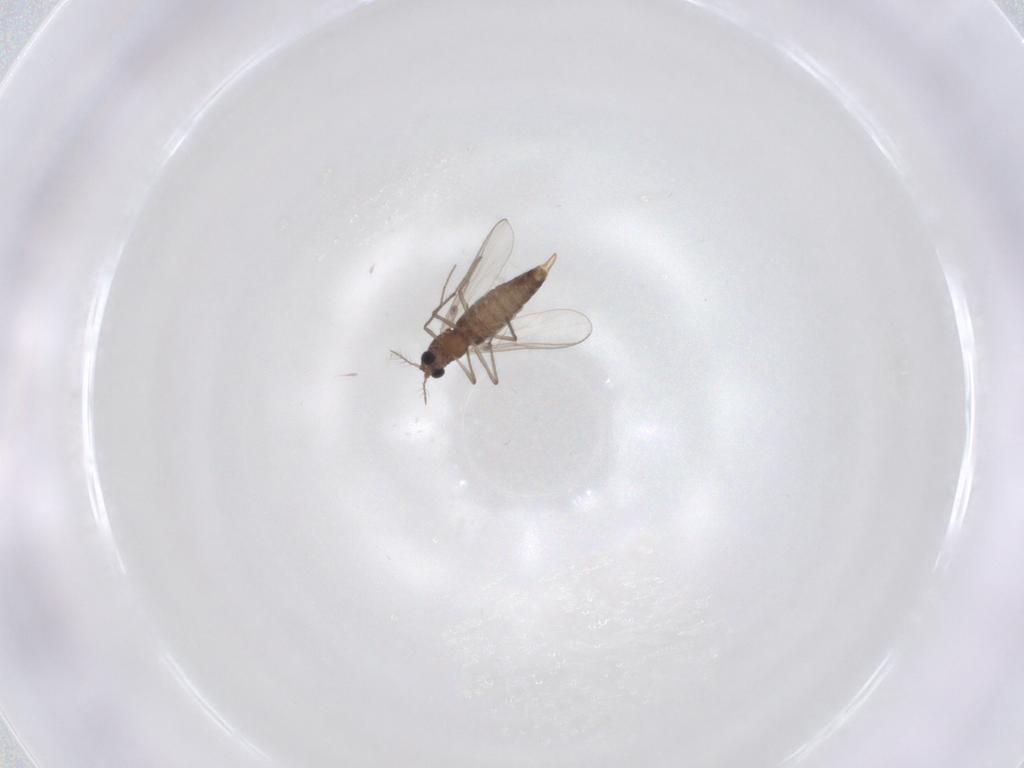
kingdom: Animalia
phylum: Arthropoda
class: Insecta
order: Diptera
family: Chironomidae
